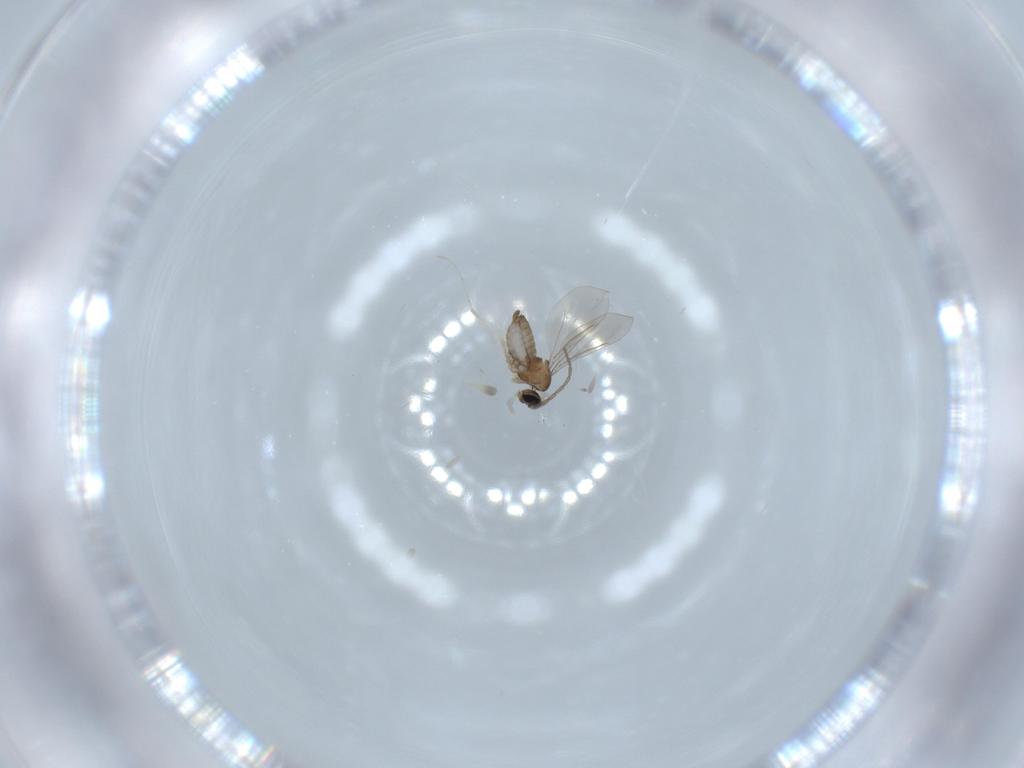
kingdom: Animalia
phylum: Arthropoda
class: Insecta
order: Diptera
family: Cecidomyiidae
